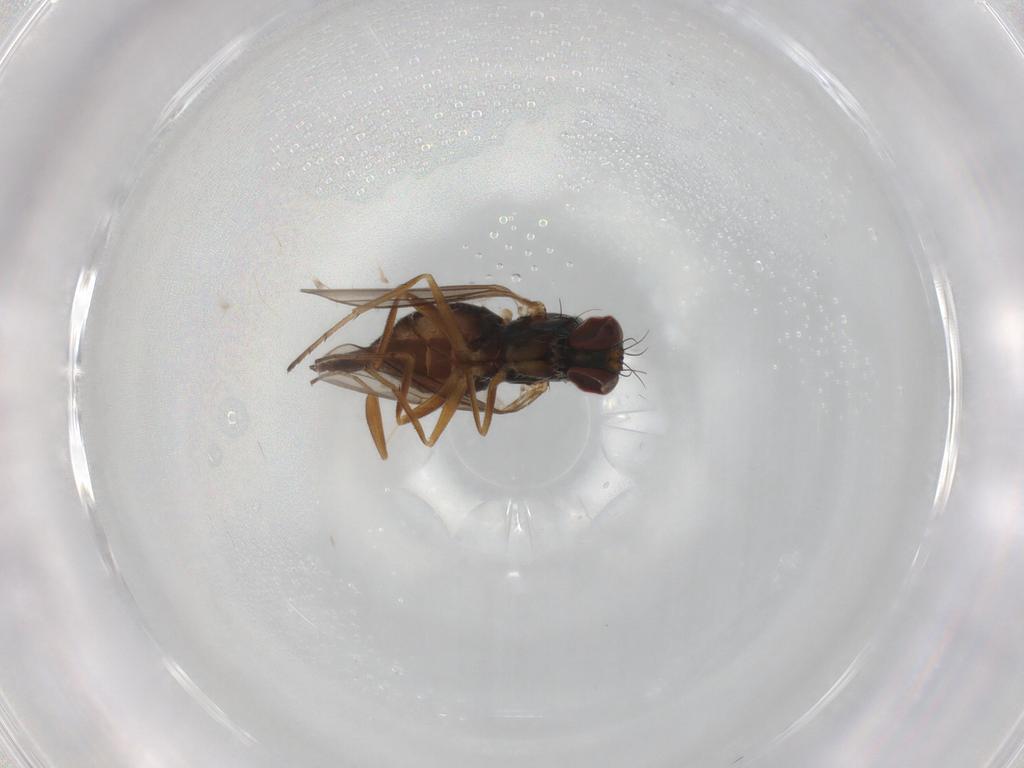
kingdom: Animalia
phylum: Arthropoda
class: Insecta
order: Diptera
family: Dolichopodidae
